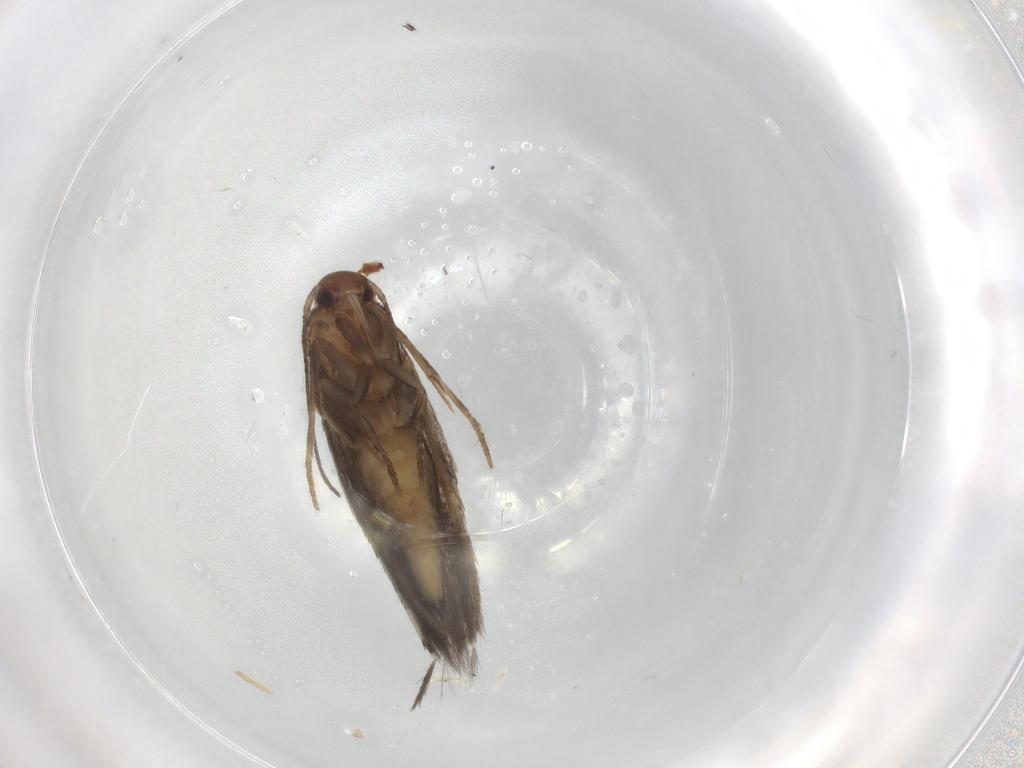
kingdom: Animalia
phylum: Arthropoda
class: Insecta
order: Lepidoptera
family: Elachistidae
